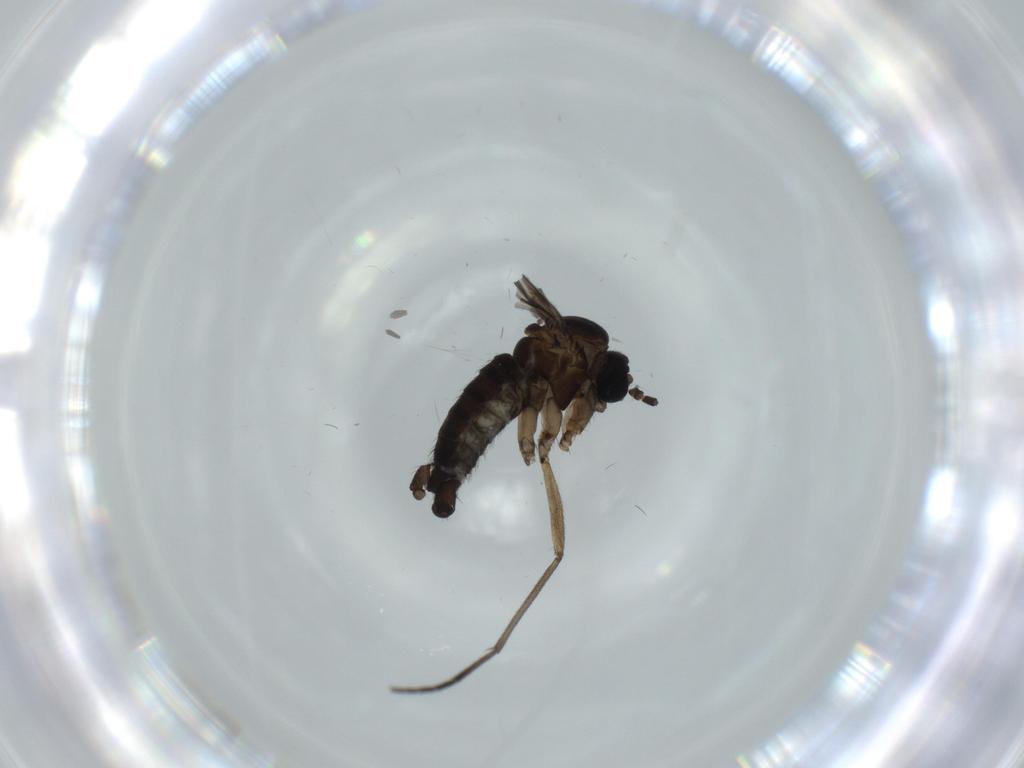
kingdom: Animalia
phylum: Arthropoda
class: Insecta
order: Diptera
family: Sciaridae
